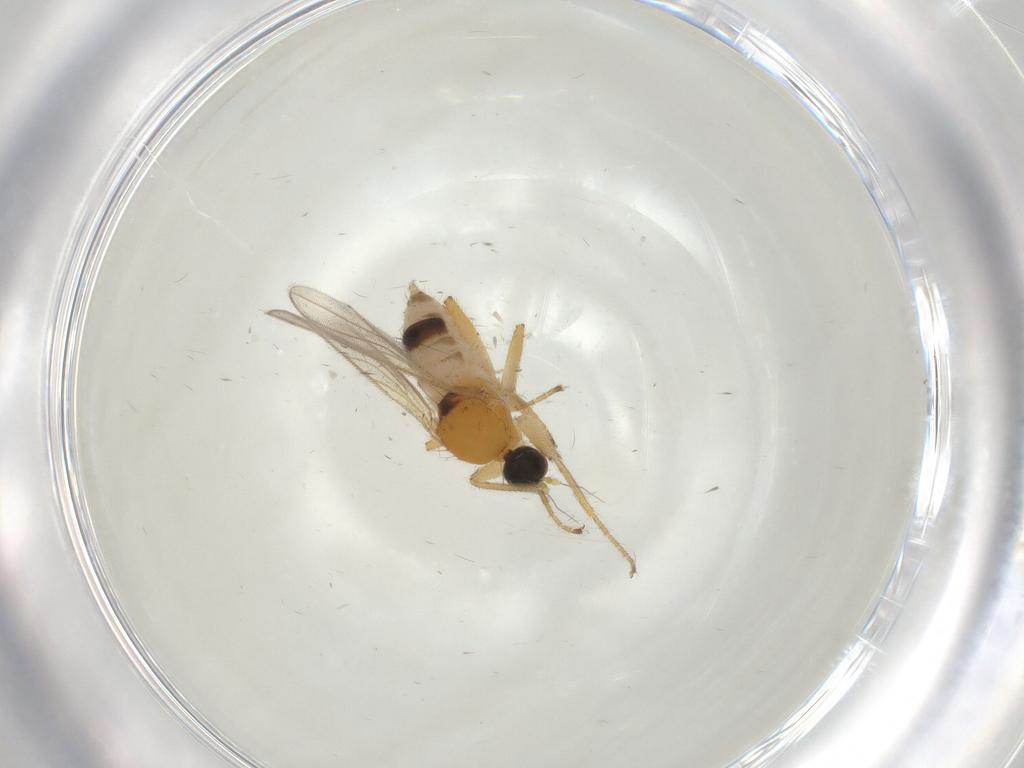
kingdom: Animalia
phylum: Arthropoda
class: Insecta
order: Diptera
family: Hybotidae
